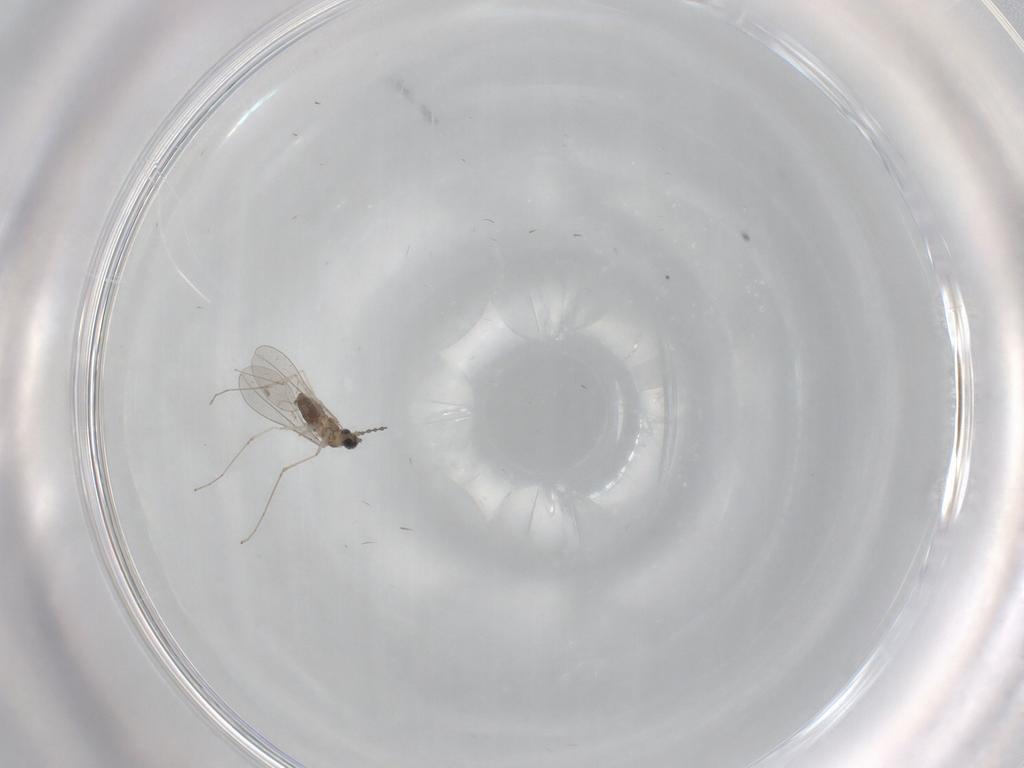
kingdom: Animalia
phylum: Arthropoda
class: Insecta
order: Diptera
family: Cecidomyiidae
